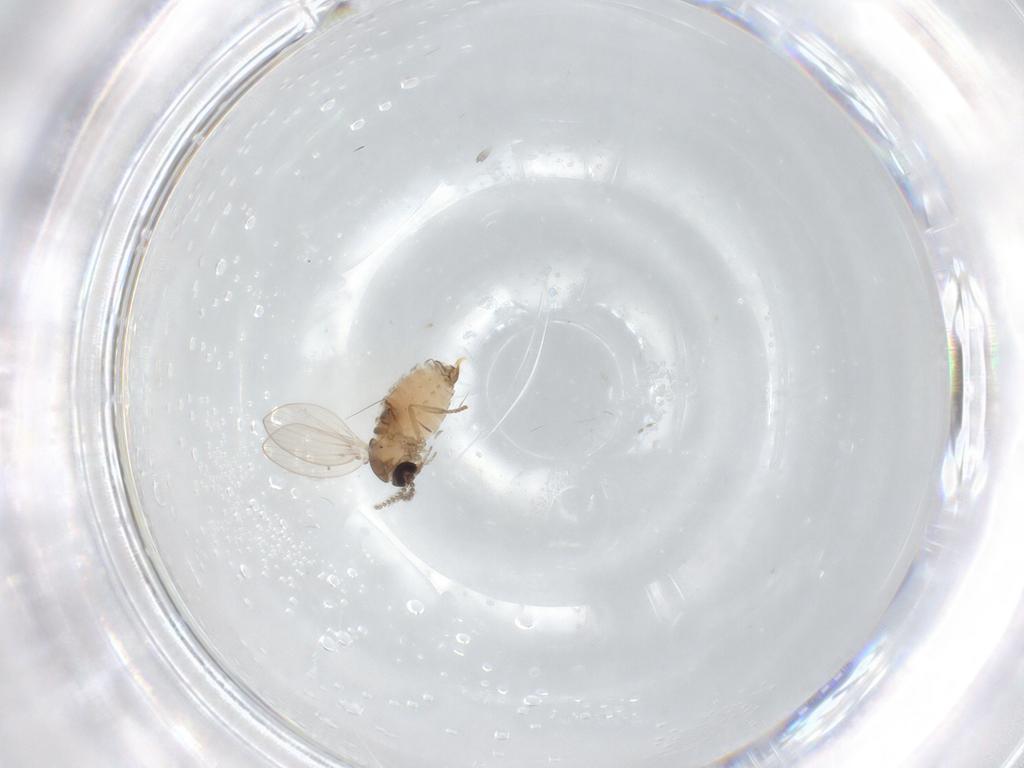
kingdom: Animalia
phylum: Arthropoda
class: Insecta
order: Diptera
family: Psychodidae
